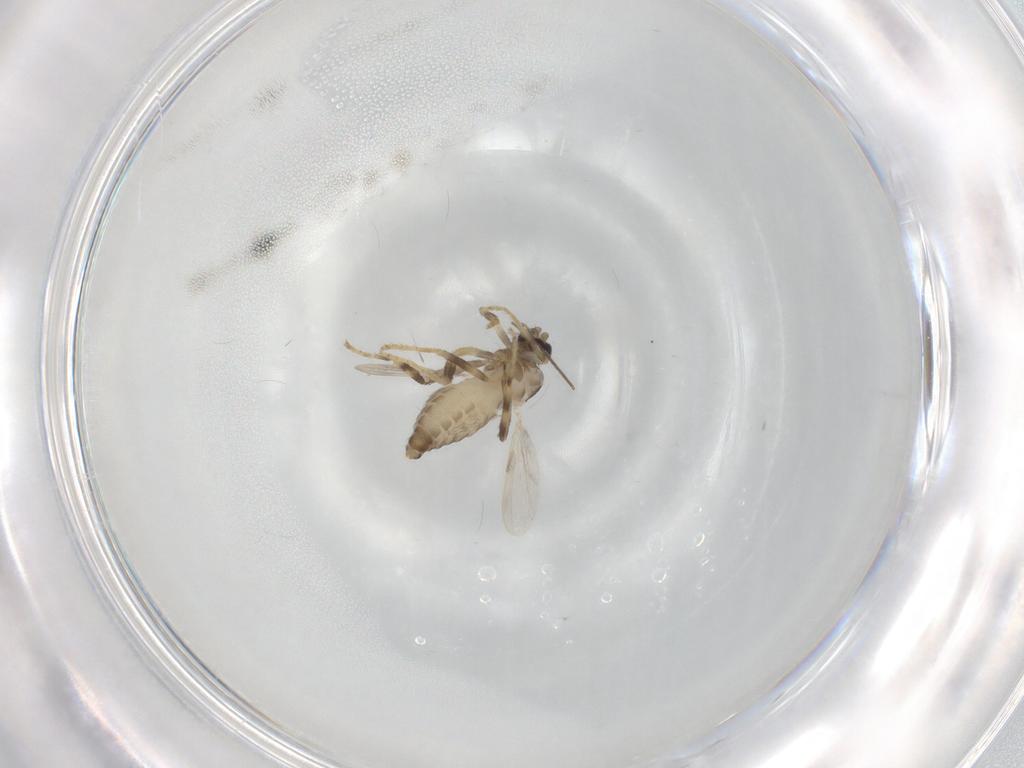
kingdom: Animalia
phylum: Arthropoda
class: Insecta
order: Diptera
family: Ceratopogonidae
